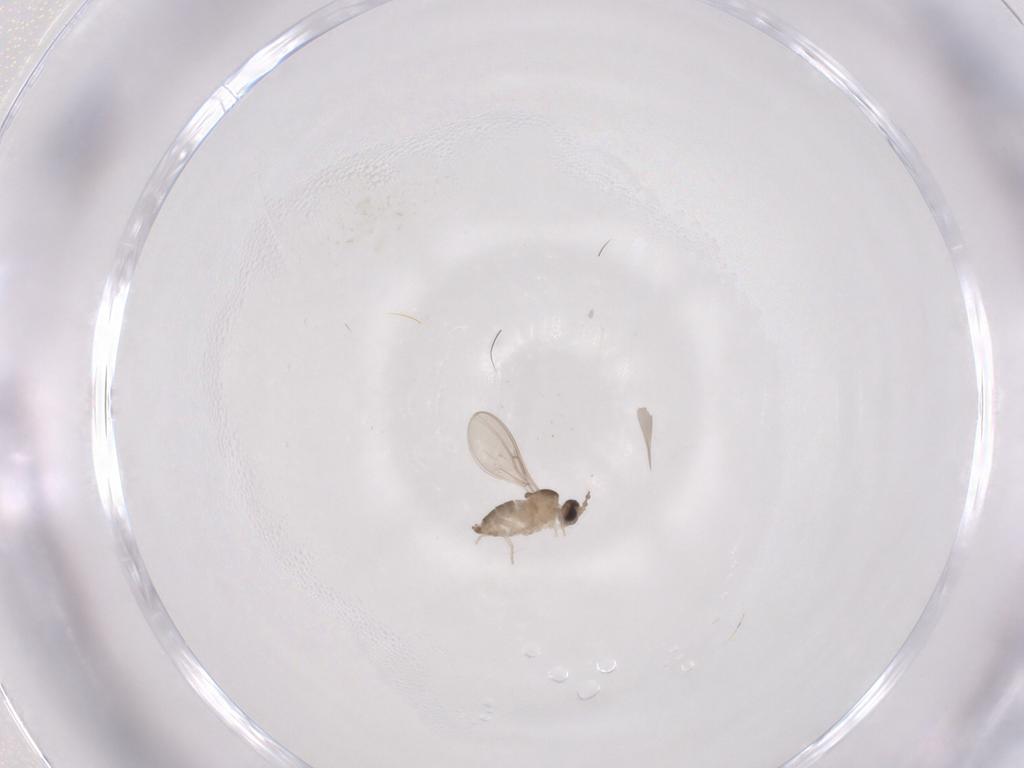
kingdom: Animalia
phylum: Arthropoda
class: Insecta
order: Diptera
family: Cecidomyiidae
